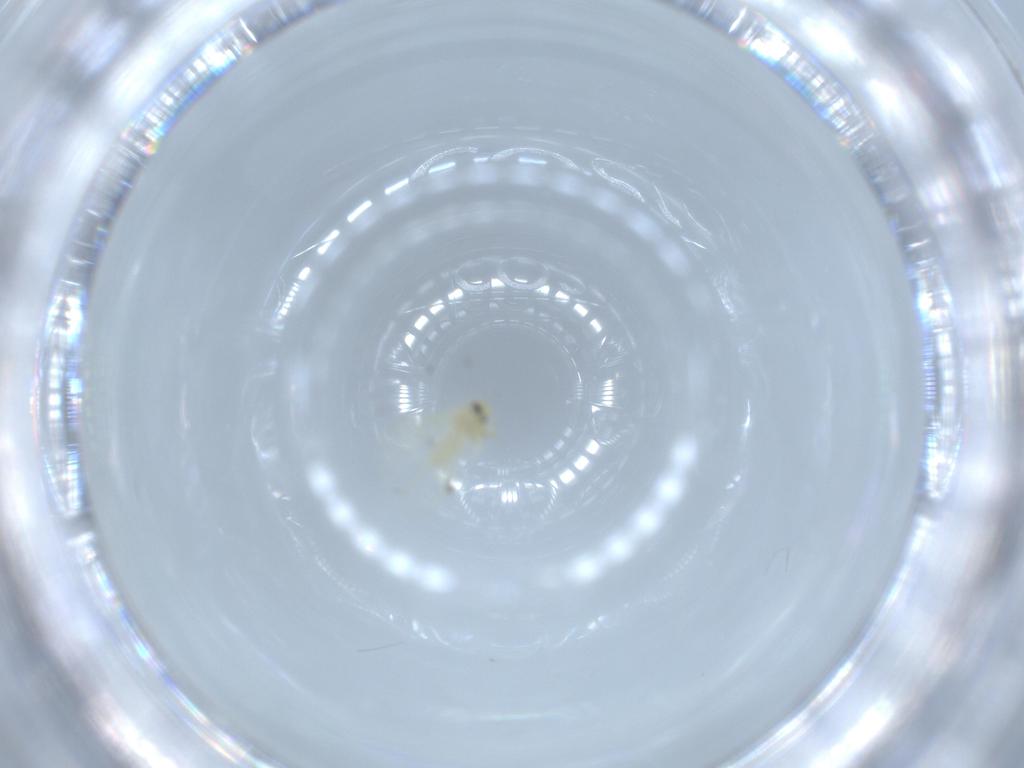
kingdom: Animalia
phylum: Arthropoda
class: Insecta
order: Hemiptera
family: Aleyrodidae
